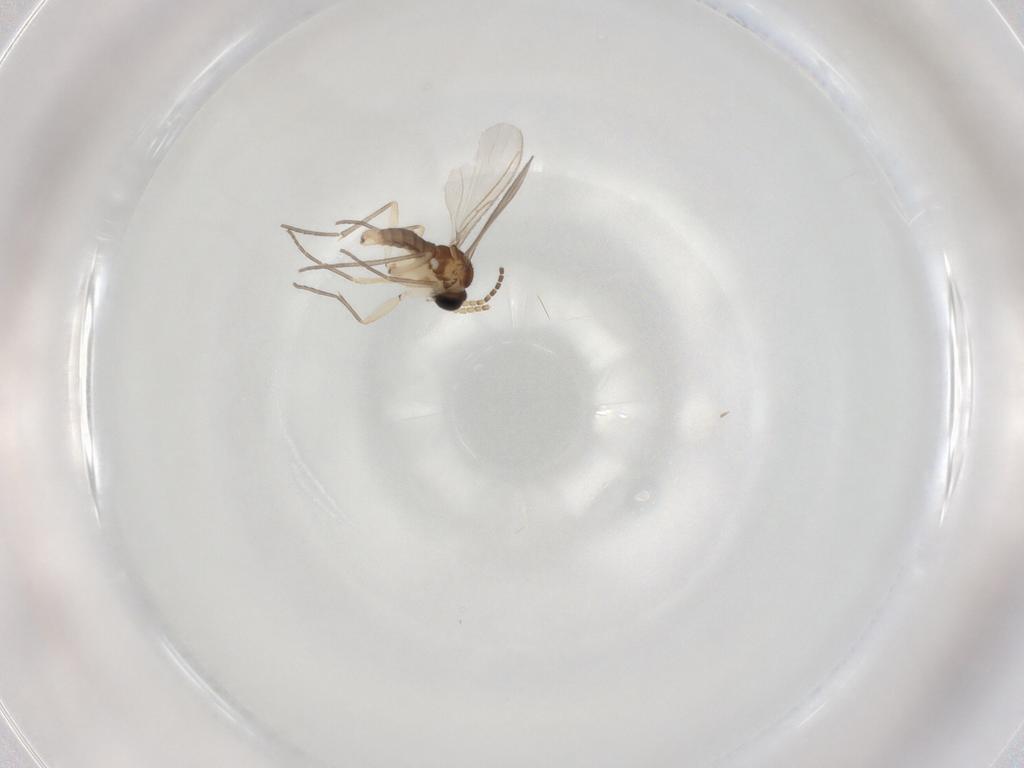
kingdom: Animalia
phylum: Arthropoda
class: Insecta
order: Diptera
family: Sciaridae
